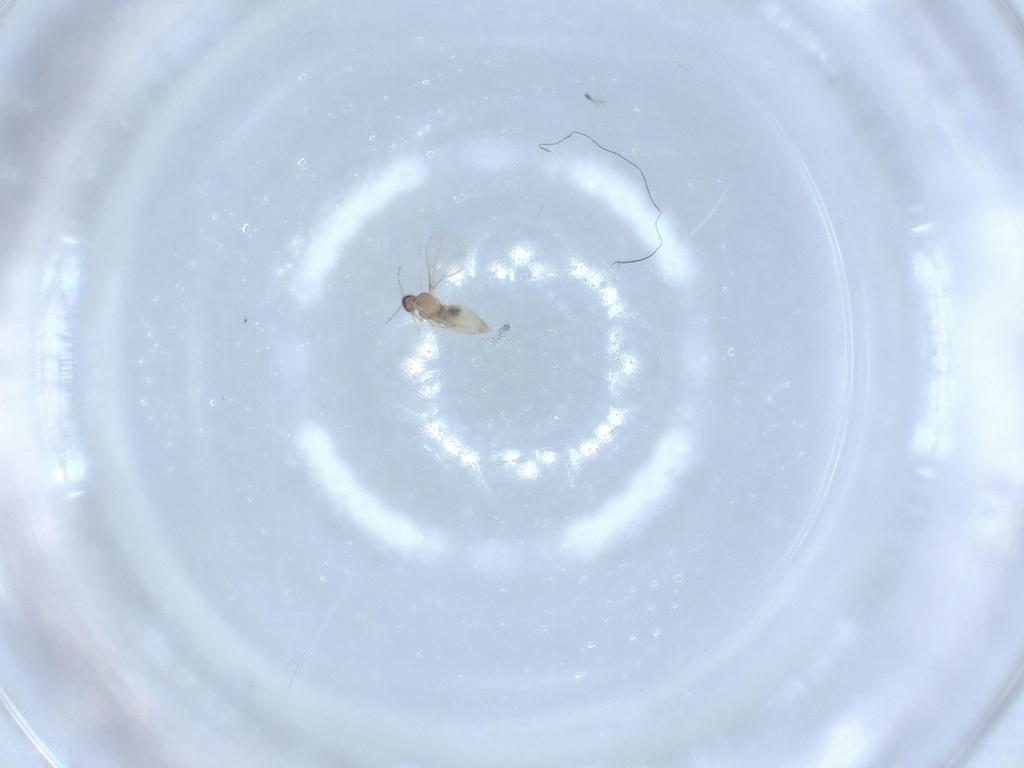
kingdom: Animalia
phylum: Arthropoda
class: Insecta
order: Diptera
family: Cecidomyiidae
